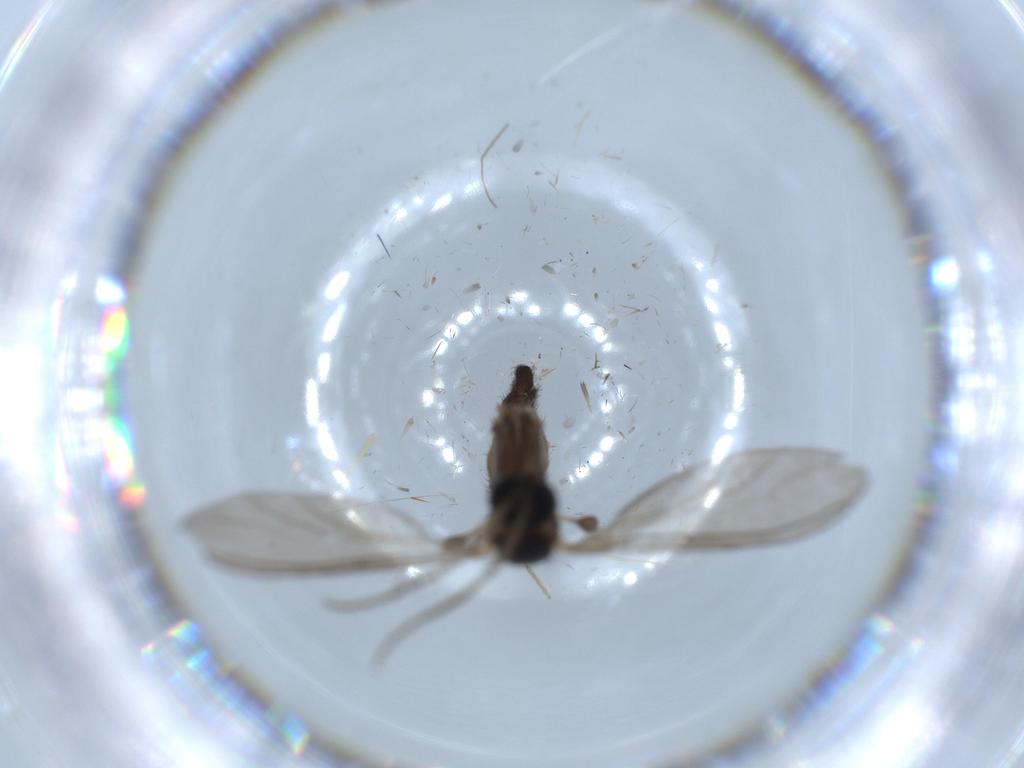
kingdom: Animalia
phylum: Arthropoda
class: Insecta
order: Diptera
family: Sciaridae
